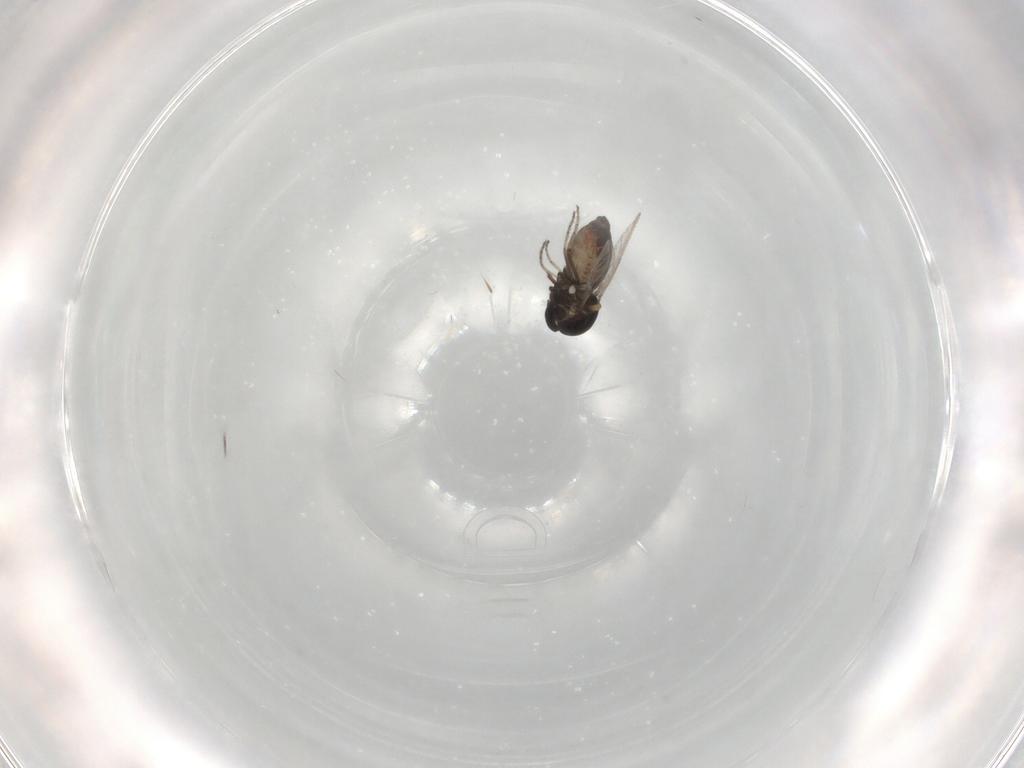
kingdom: Animalia
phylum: Arthropoda
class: Insecta
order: Diptera
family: Ceratopogonidae
